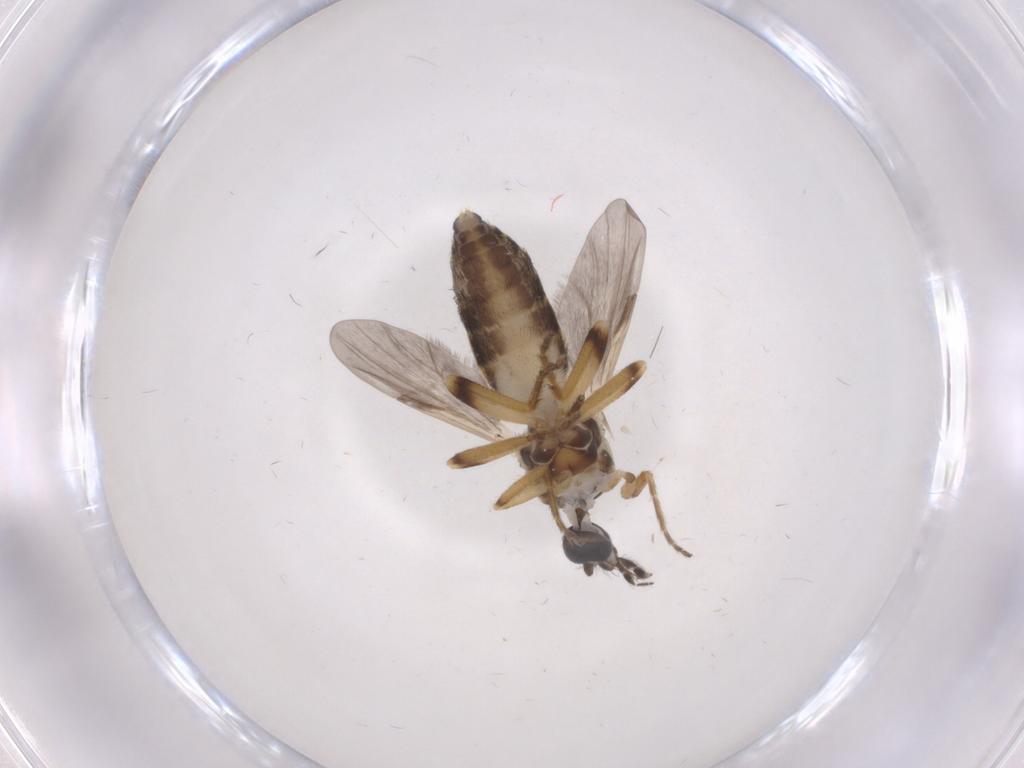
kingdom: Animalia
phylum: Arthropoda
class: Insecta
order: Diptera
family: Ceratopogonidae
